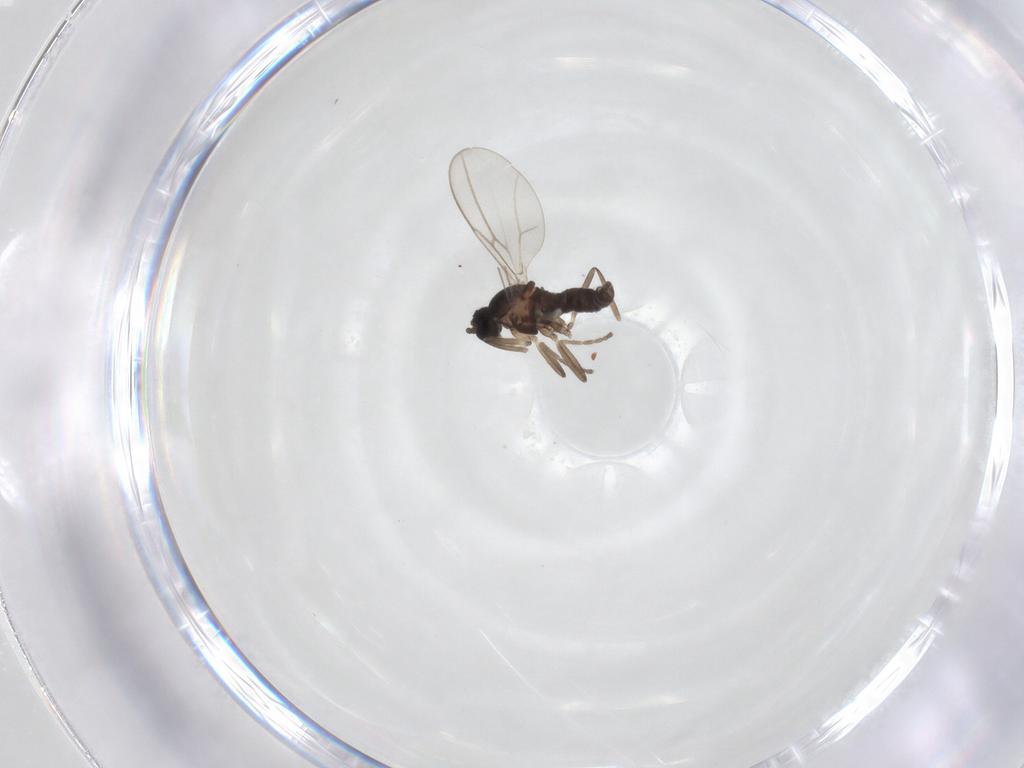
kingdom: Animalia
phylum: Arthropoda
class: Insecta
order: Diptera
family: Cecidomyiidae
